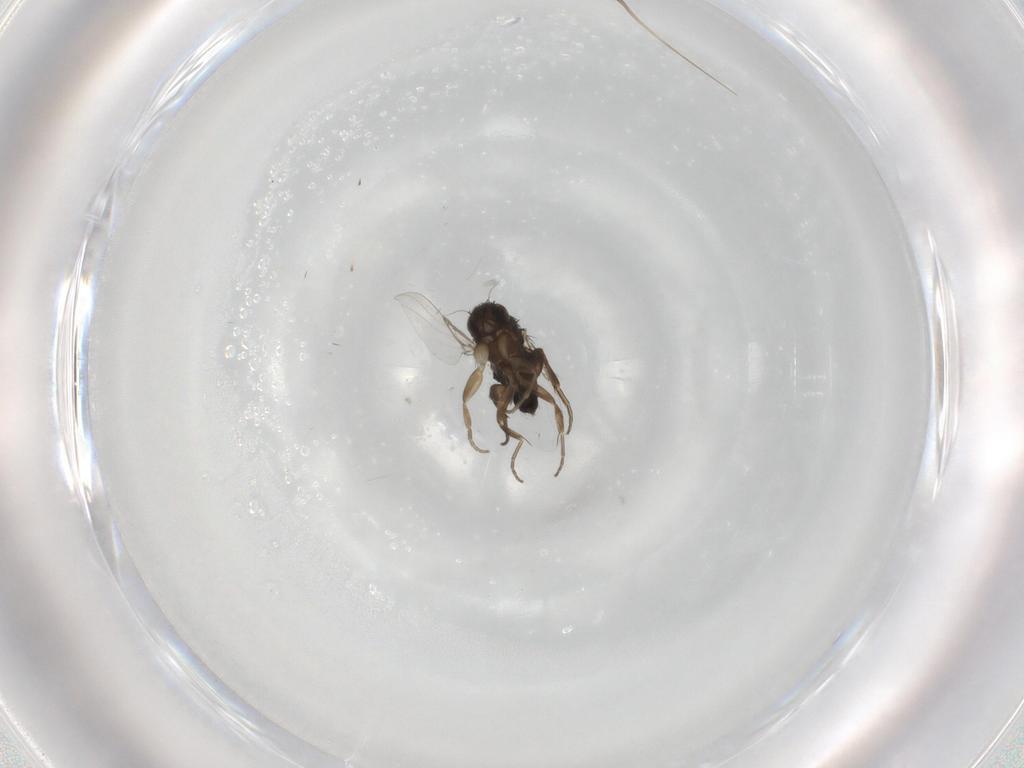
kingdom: Animalia
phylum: Arthropoda
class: Insecta
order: Diptera
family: Phoridae
